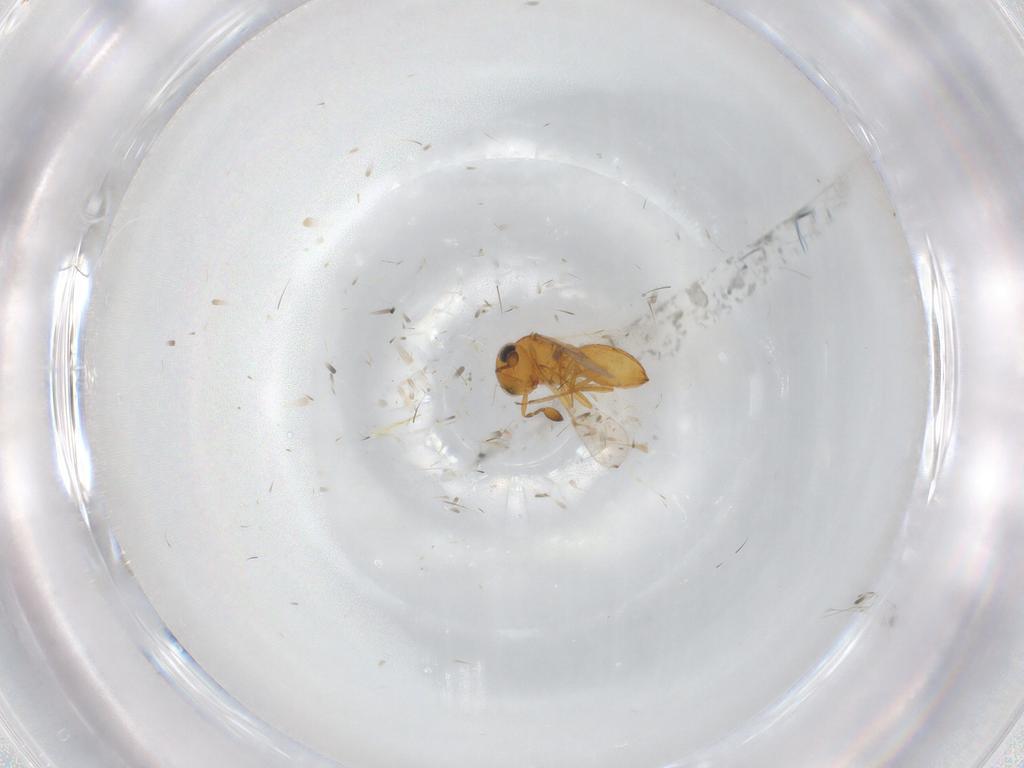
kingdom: Animalia
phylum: Arthropoda
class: Insecta
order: Hymenoptera
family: Scelionidae
